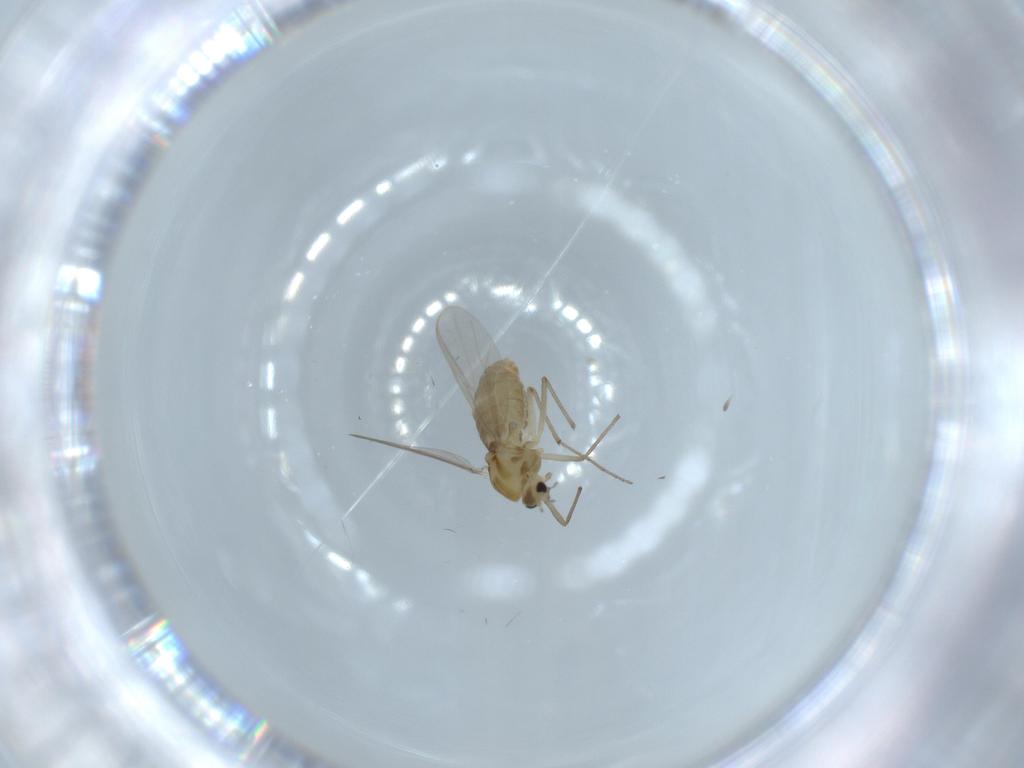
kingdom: Animalia
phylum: Arthropoda
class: Insecta
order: Diptera
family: Chironomidae
